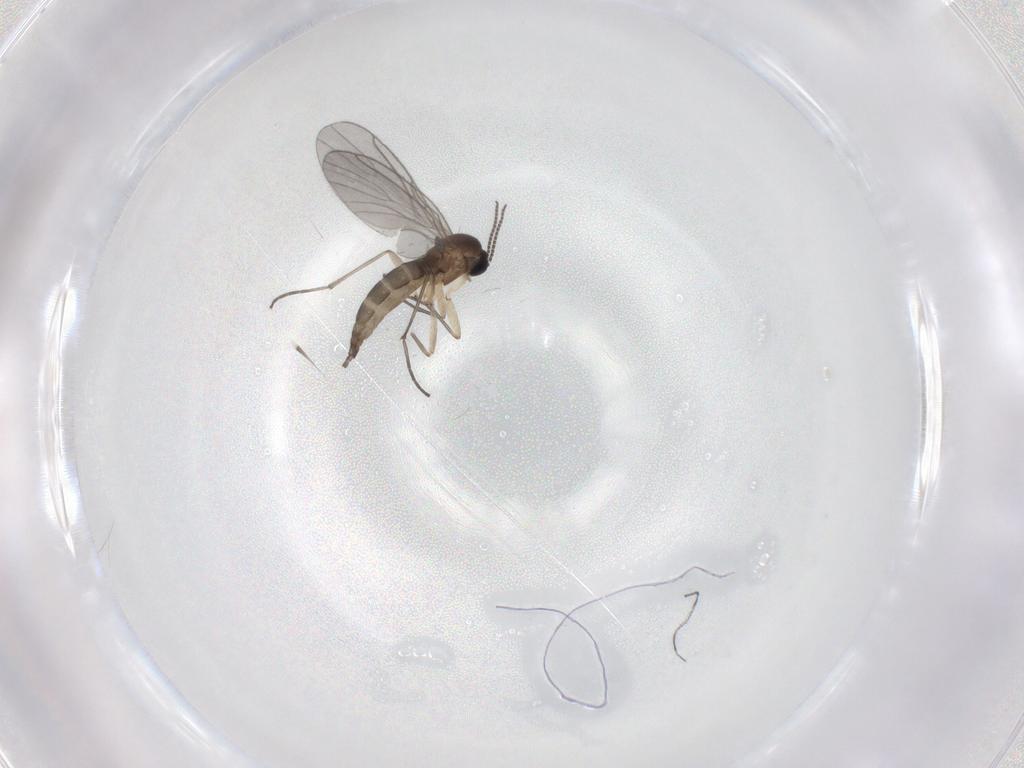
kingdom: Animalia
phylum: Arthropoda
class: Insecta
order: Diptera
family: Sciaridae
